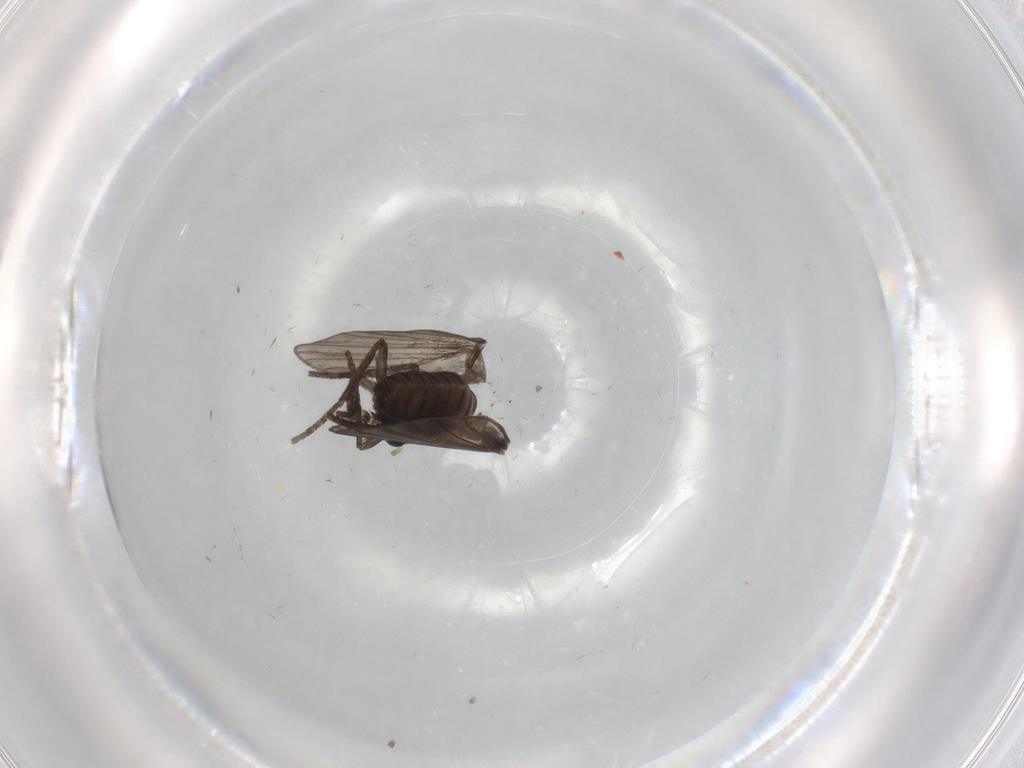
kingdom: Animalia
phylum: Arthropoda
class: Insecta
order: Diptera
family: Psychodidae
